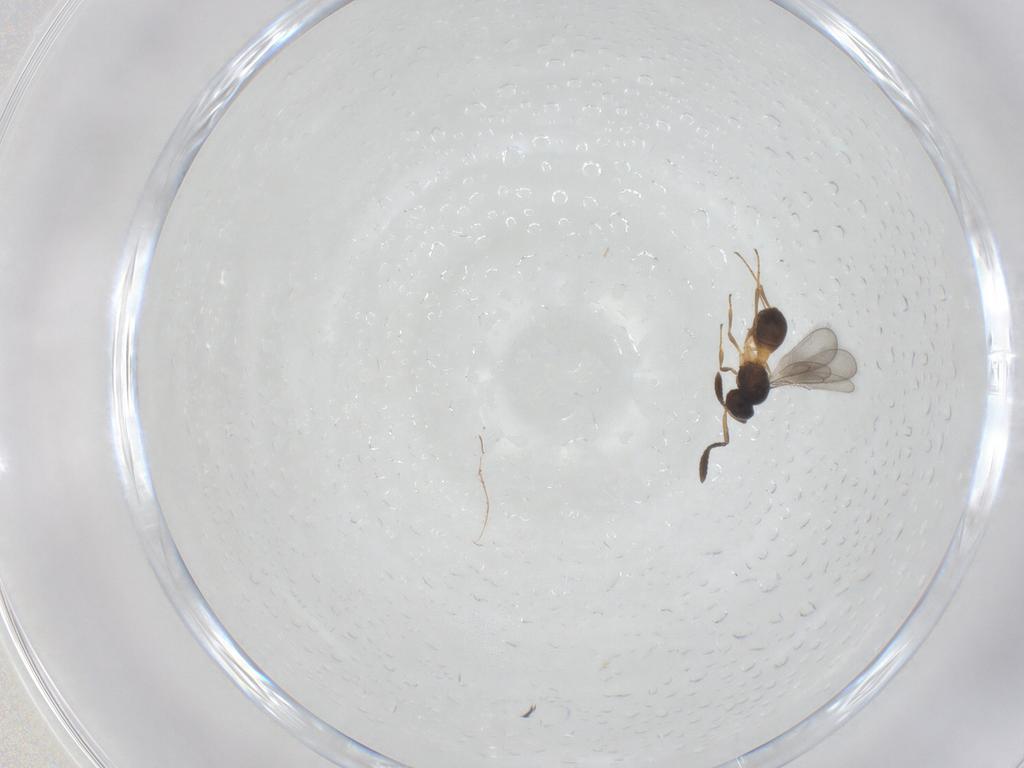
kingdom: Animalia
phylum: Arthropoda
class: Insecta
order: Hymenoptera
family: Scelionidae
